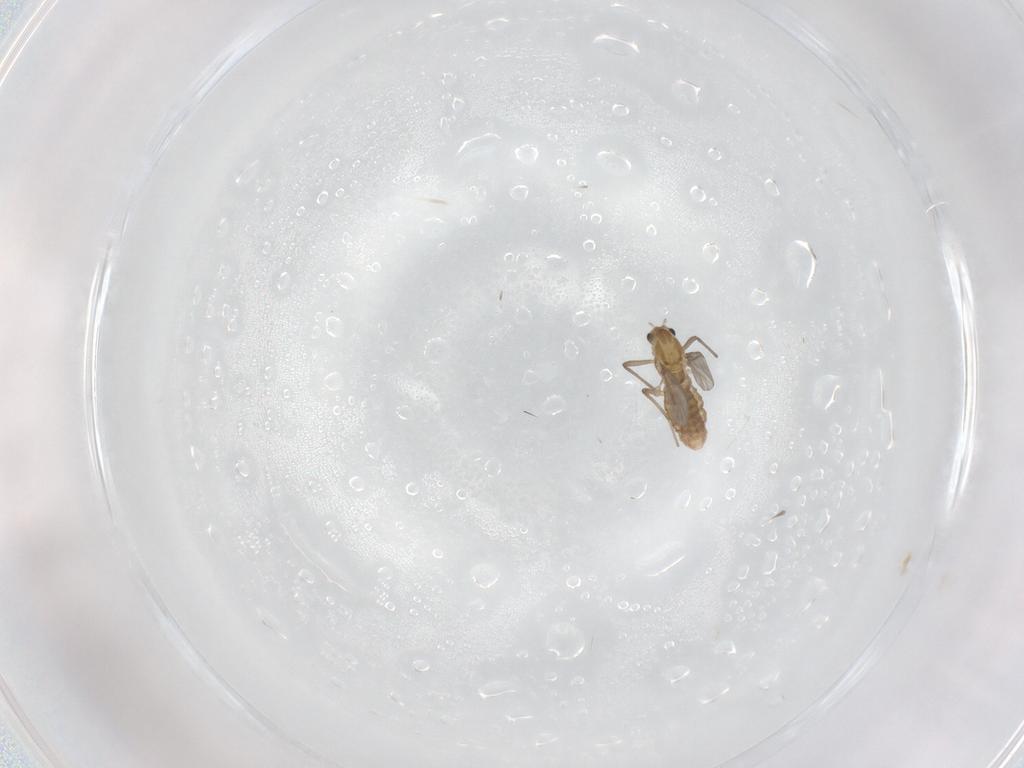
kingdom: Animalia
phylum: Arthropoda
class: Insecta
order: Diptera
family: Chironomidae
